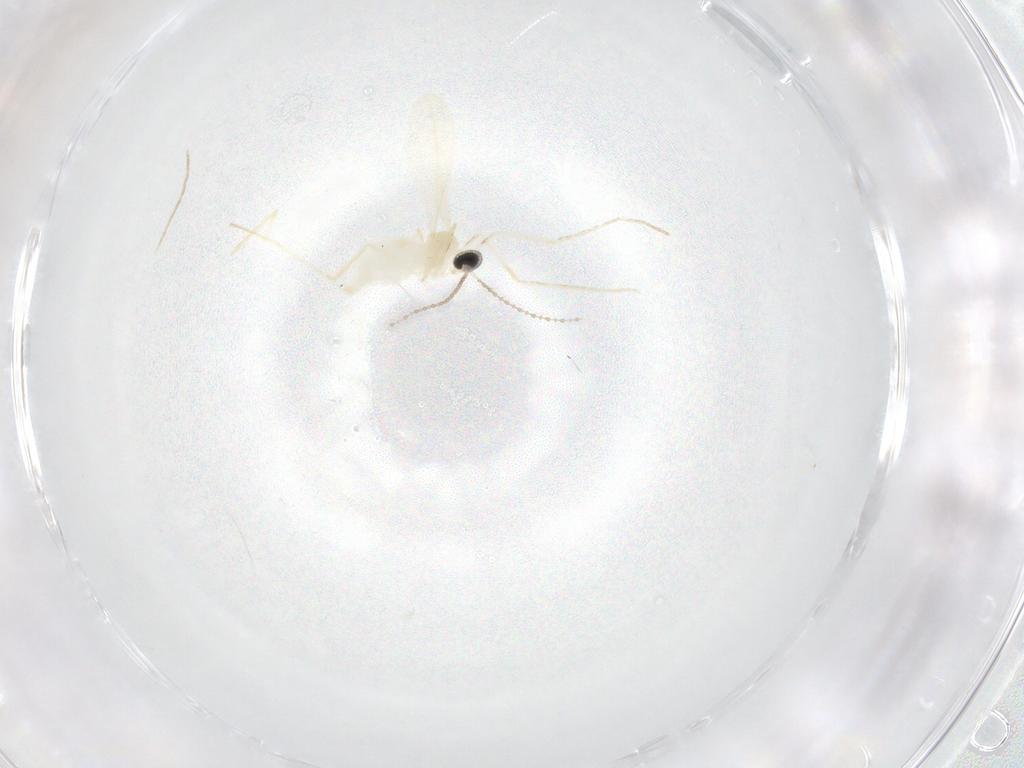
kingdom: Animalia
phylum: Arthropoda
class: Insecta
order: Diptera
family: Cecidomyiidae
